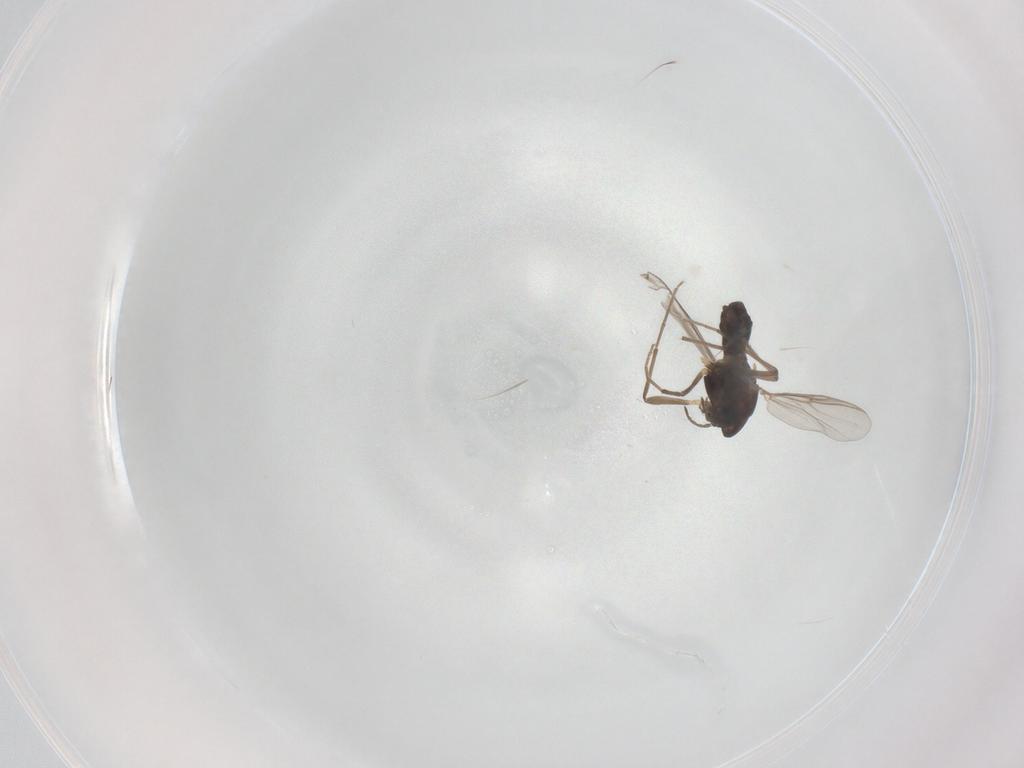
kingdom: Animalia
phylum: Arthropoda
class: Insecta
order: Diptera
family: Chironomidae
